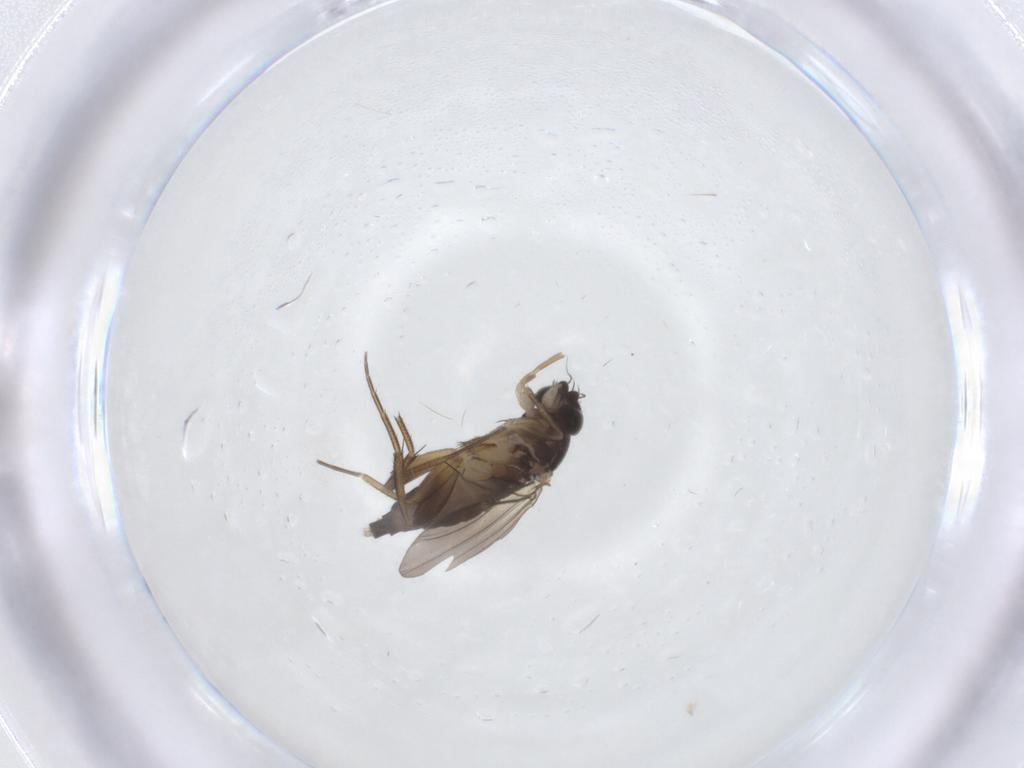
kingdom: Animalia
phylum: Arthropoda
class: Insecta
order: Diptera
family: Phoridae
